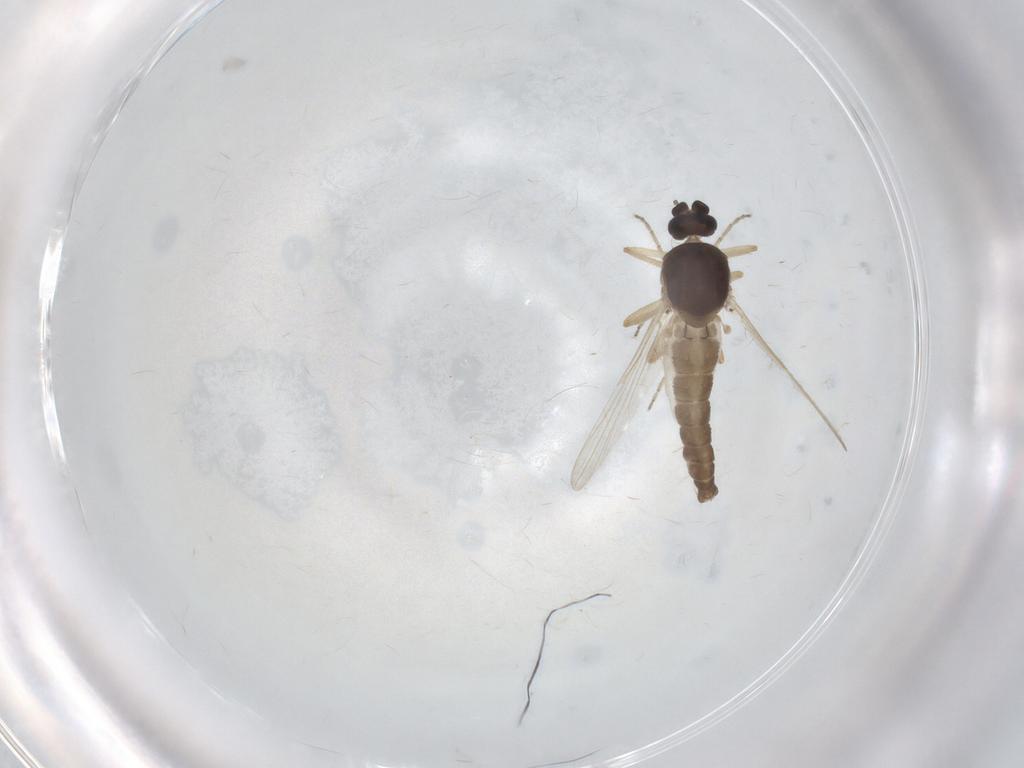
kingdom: Animalia
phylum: Arthropoda
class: Insecta
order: Diptera
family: Ceratopogonidae
